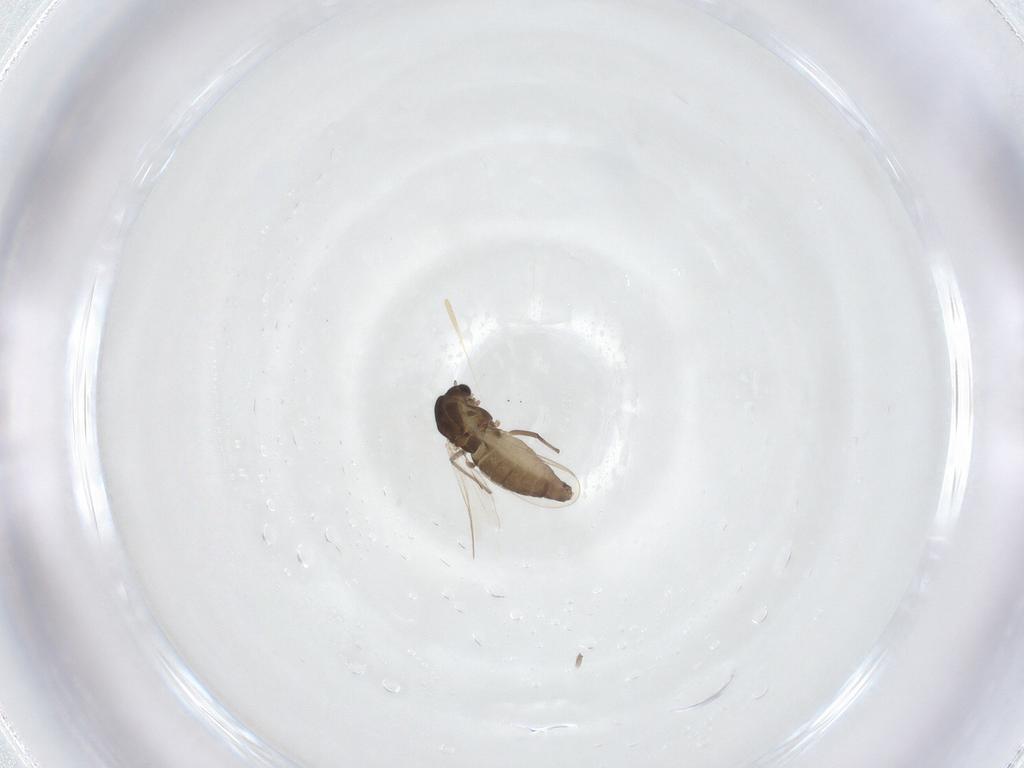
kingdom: Animalia
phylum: Arthropoda
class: Insecta
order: Diptera
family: Chironomidae
